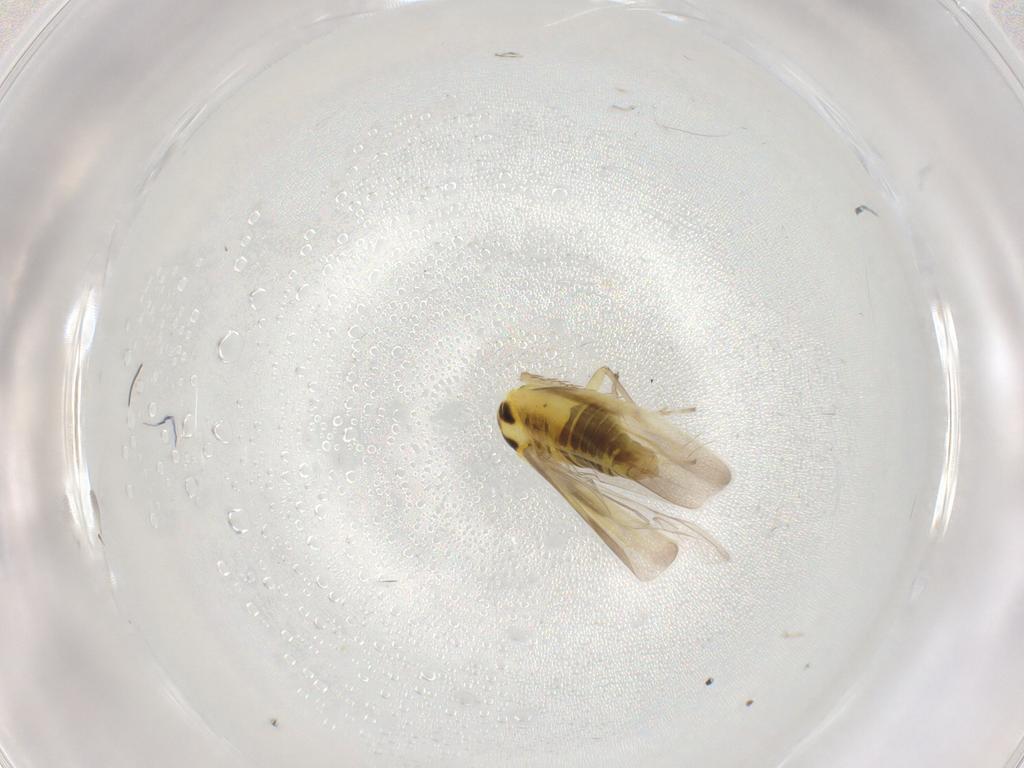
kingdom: Animalia
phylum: Arthropoda
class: Insecta
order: Hemiptera
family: Cicadellidae
